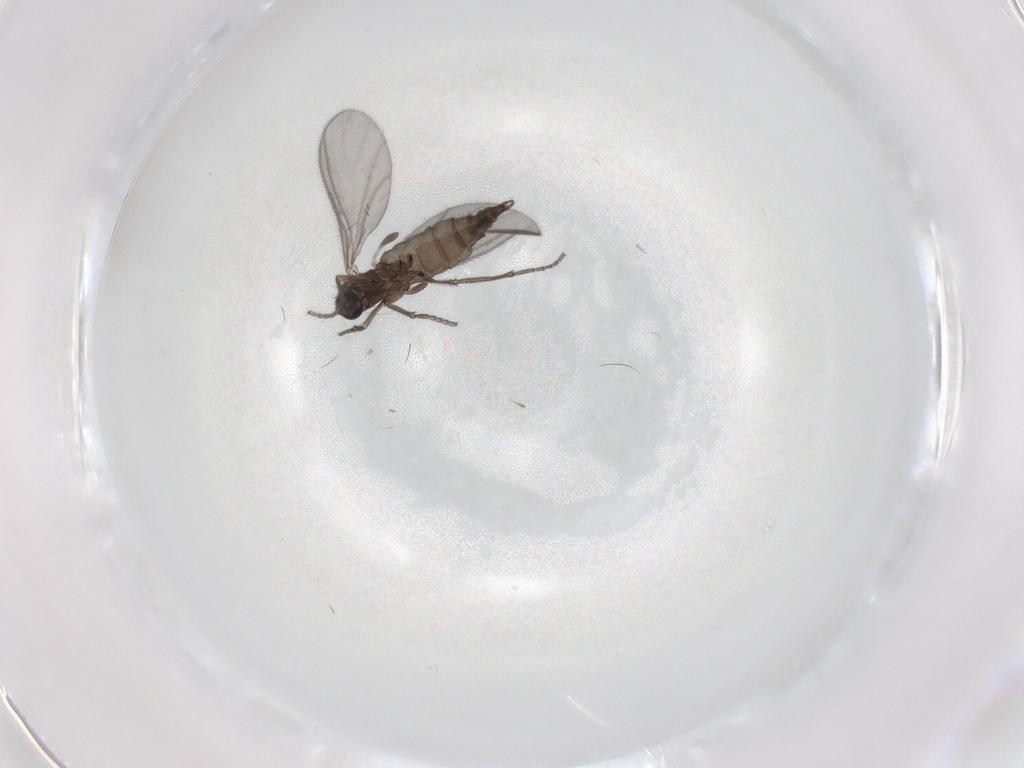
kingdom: Animalia
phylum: Arthropoda
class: Insecta
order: Diptera
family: Sciaridae
